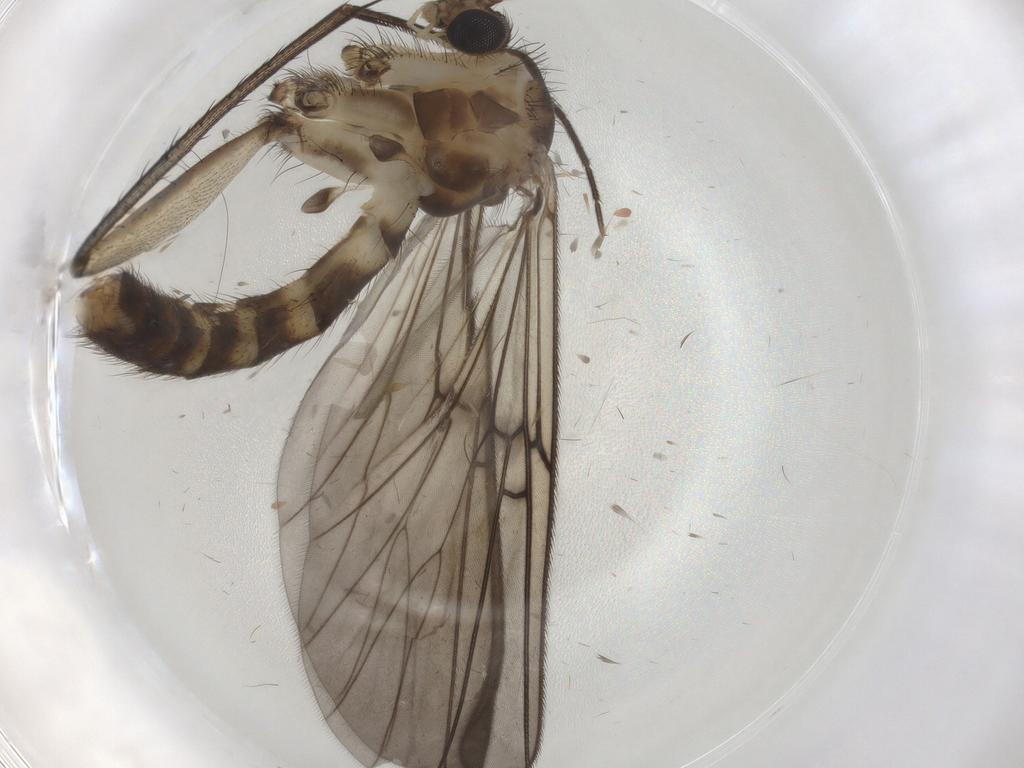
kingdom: Animalia
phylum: Arthropoda
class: Insecta
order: Diptera
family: Mycetophilidae
